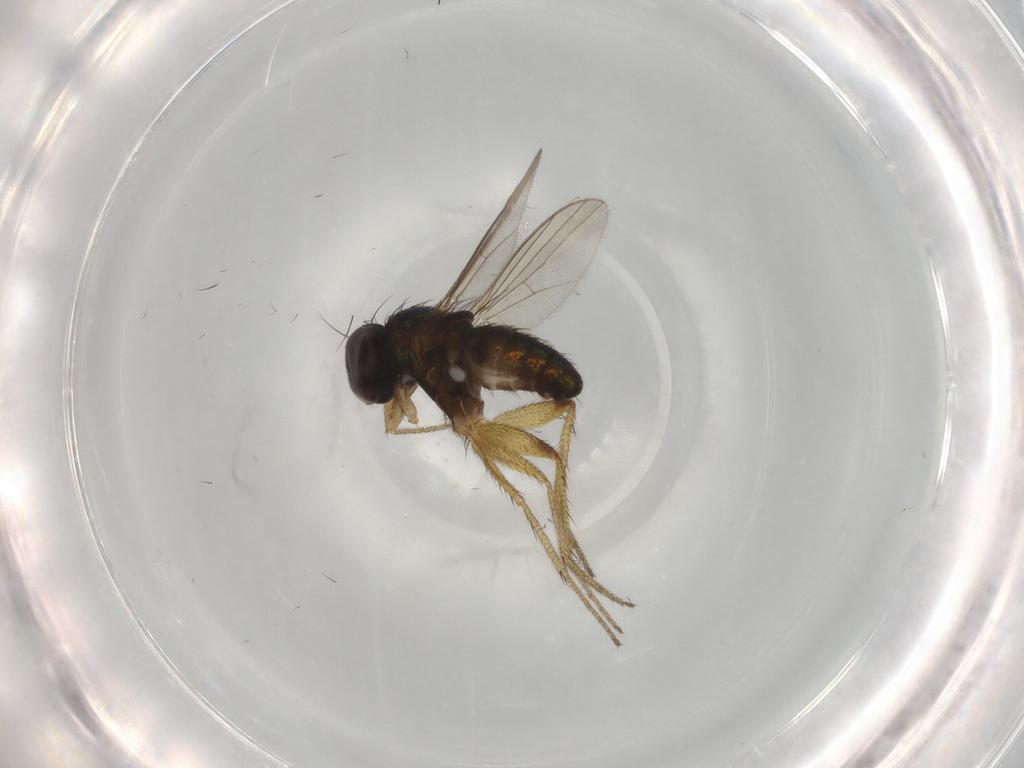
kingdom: Animalia
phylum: Arthropoda
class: Insecta
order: Diptera
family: Dolichopodidae
